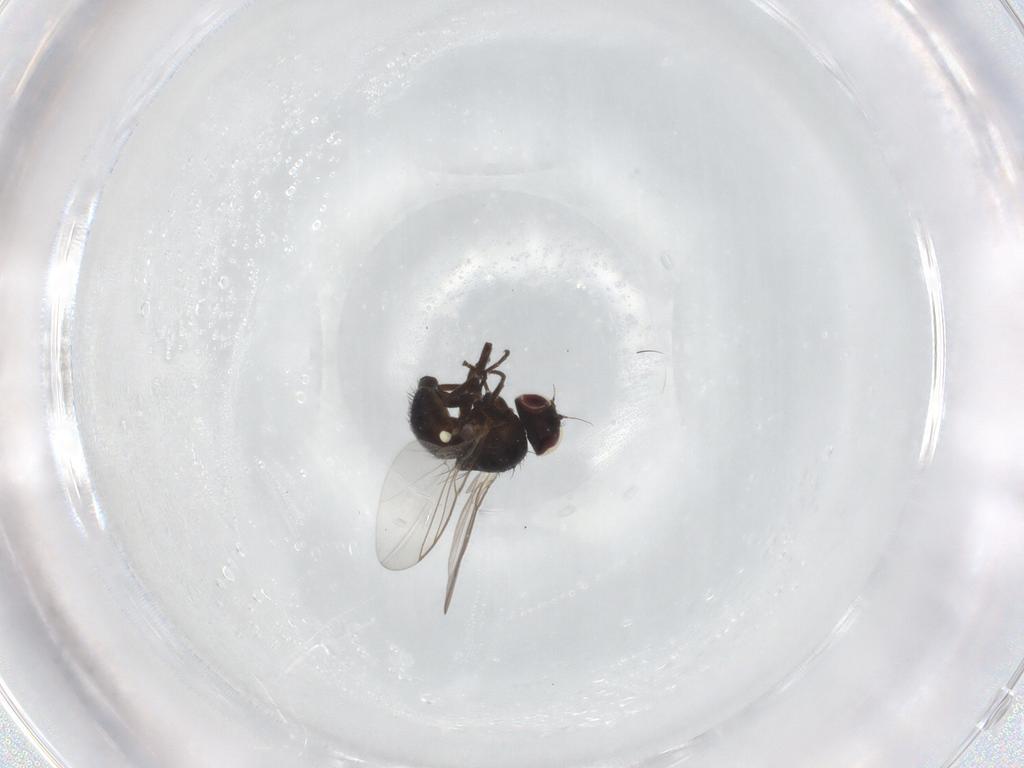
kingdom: Animalia
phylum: Arthropoda
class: Insecta
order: Diptera
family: Agromyzidae
